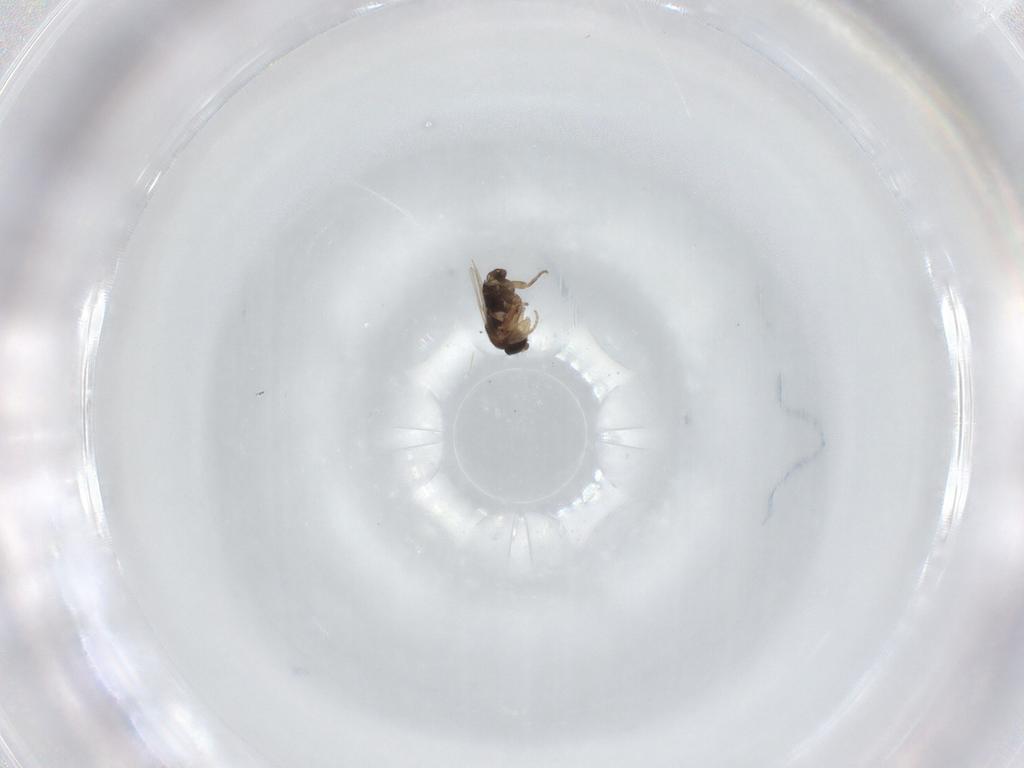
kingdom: Animalia
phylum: Arthropoda
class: Insecta
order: Diptera
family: Phoridae
